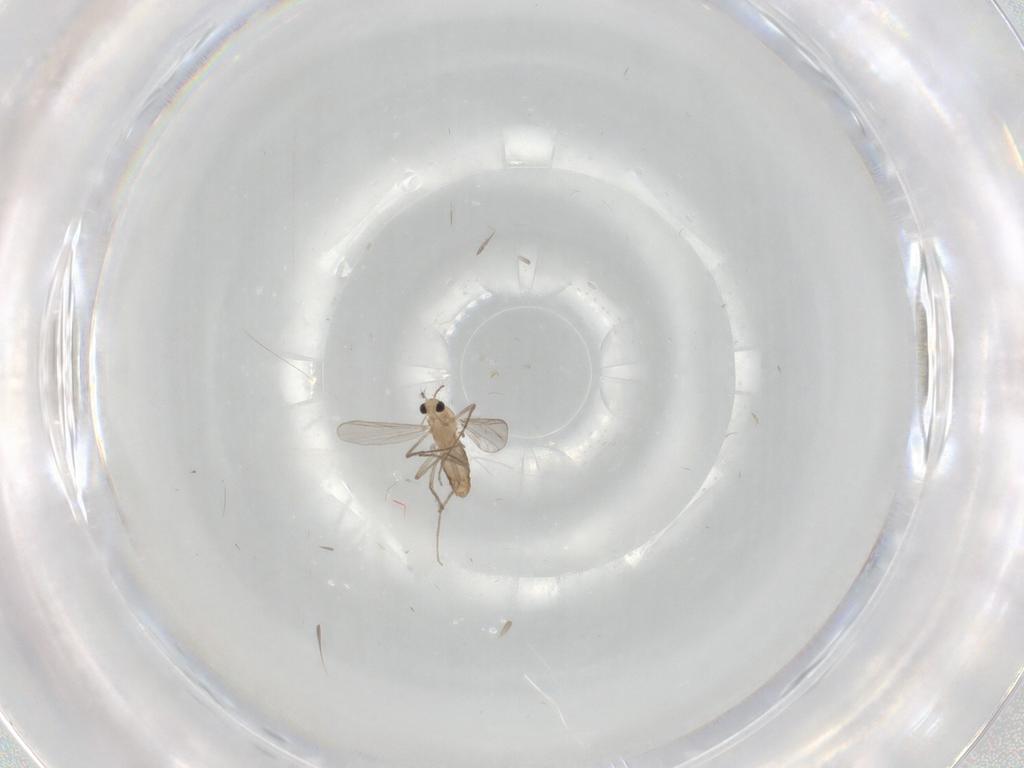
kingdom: Animalia
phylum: Arthropoda
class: Insecta
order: Diptera
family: Chironomidae
